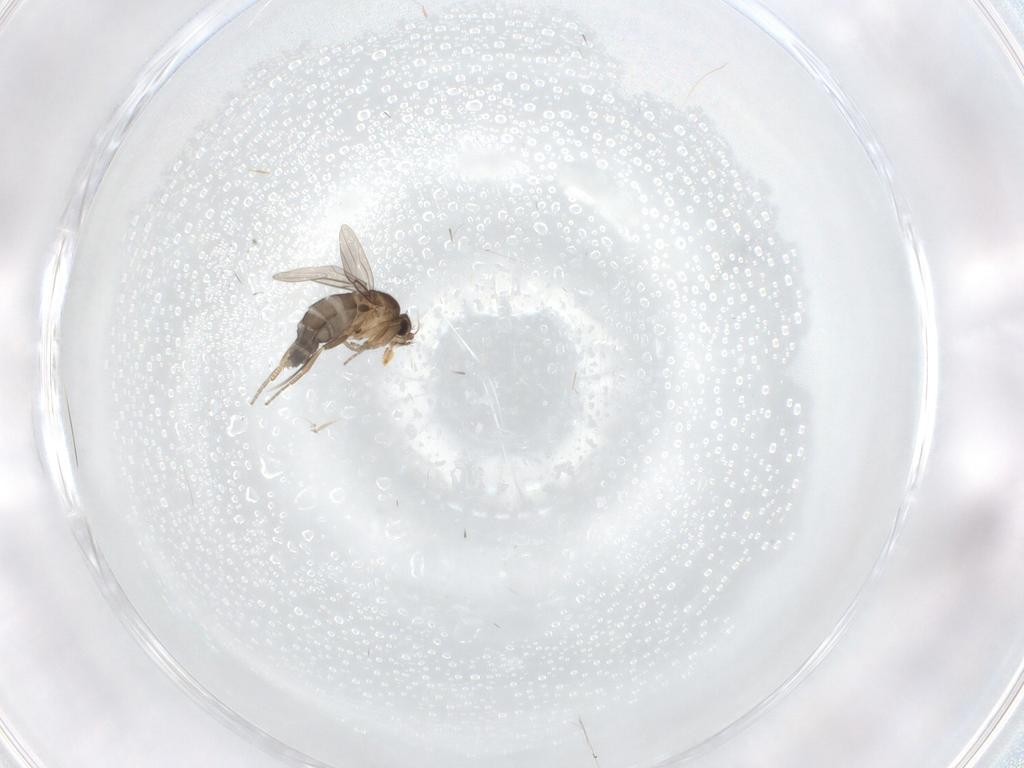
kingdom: Animalia
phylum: Arthropoda
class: Insecta
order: Diptera
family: Phoridae
